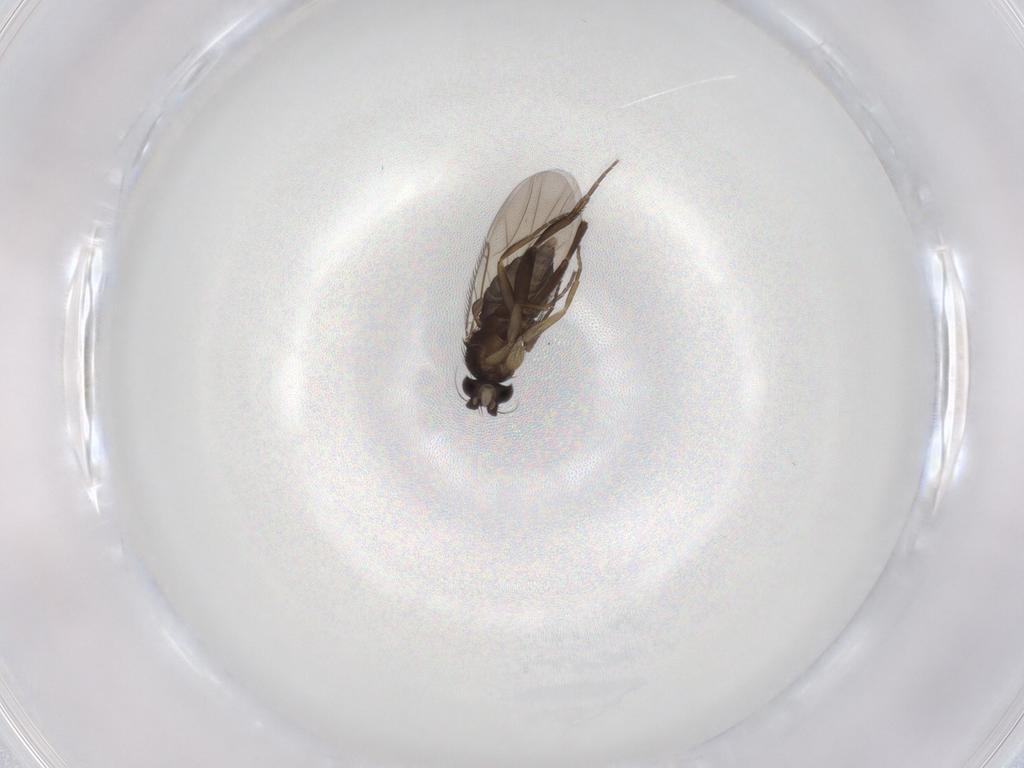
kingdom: Animalia
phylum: Arthropoda
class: Insecta
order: Diptera
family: Phoridae
